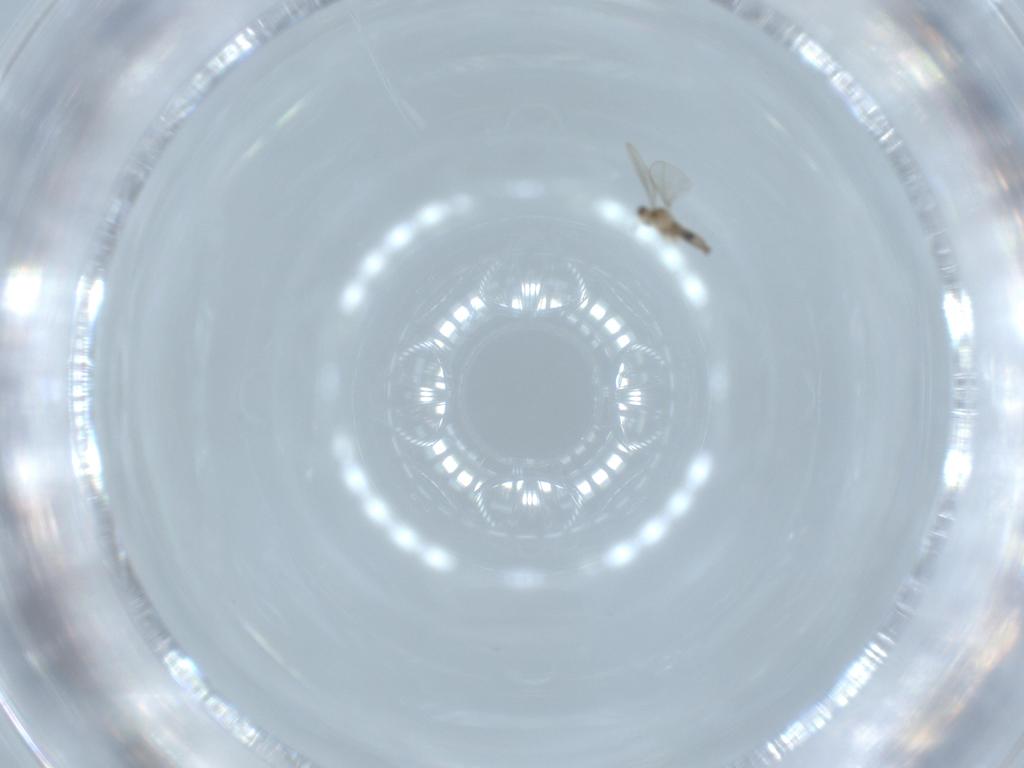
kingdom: Animalia
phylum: Arthropoda
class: Insecta
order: Diptera
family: Cecidomyiidae
